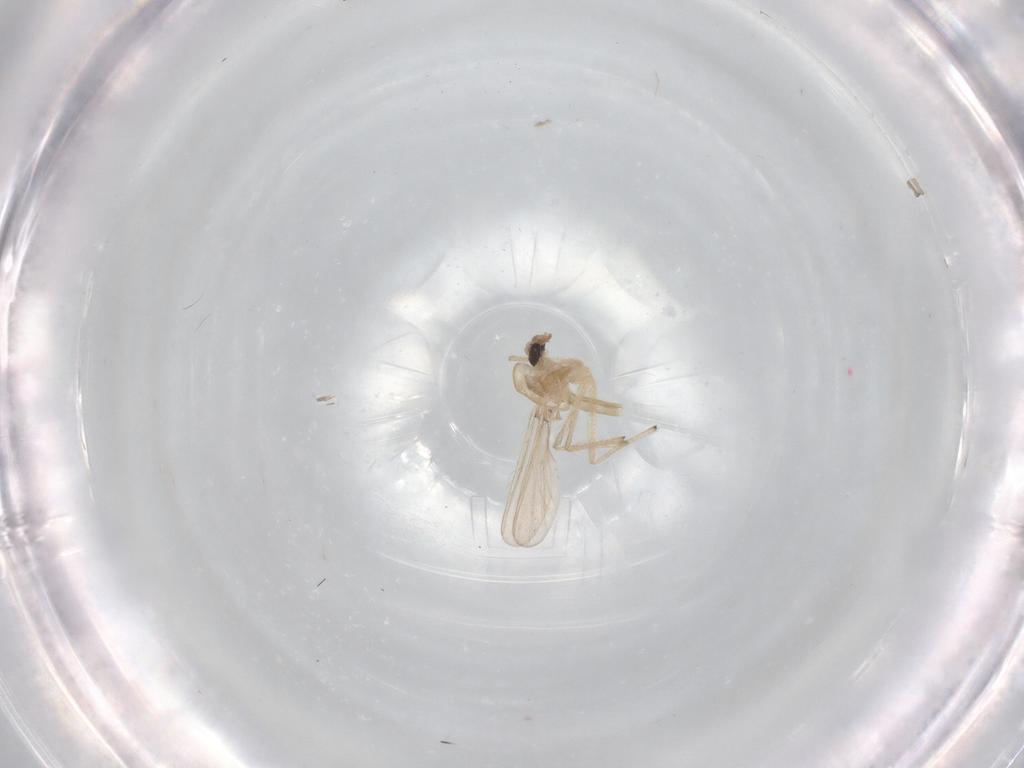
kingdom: Animalia
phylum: Arthropoda
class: Insecta
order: Diptera
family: Chironomidae
